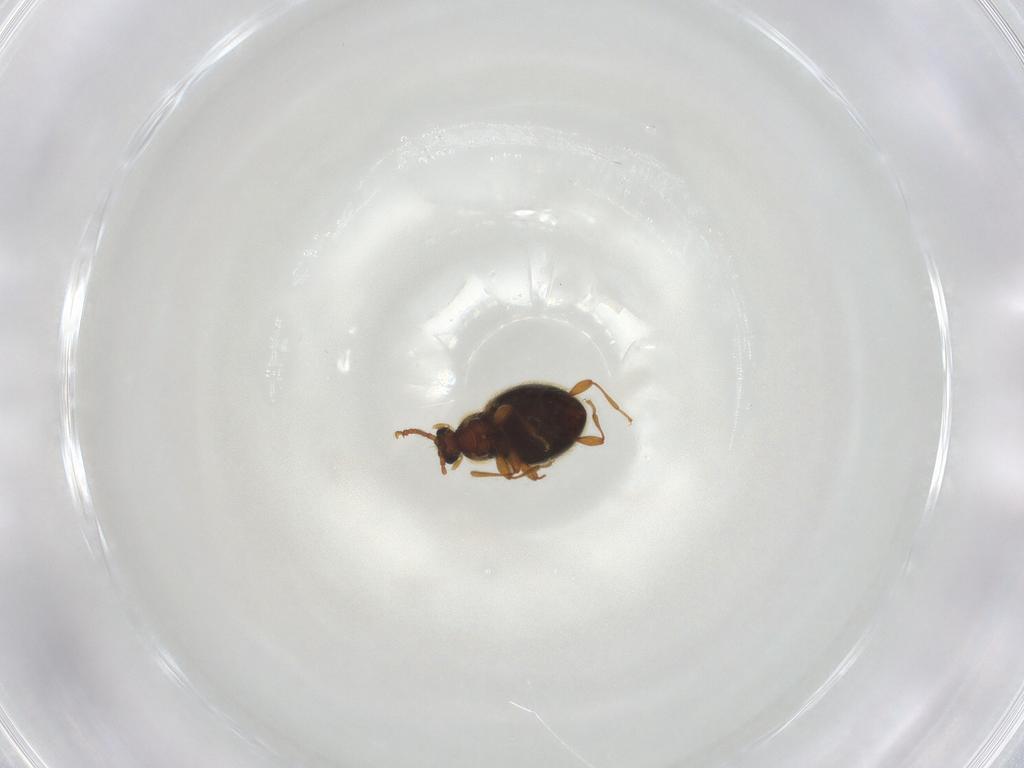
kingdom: Animalia
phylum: Arthropoda
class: Insecta
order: Coleoptera
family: Staphylinidae
